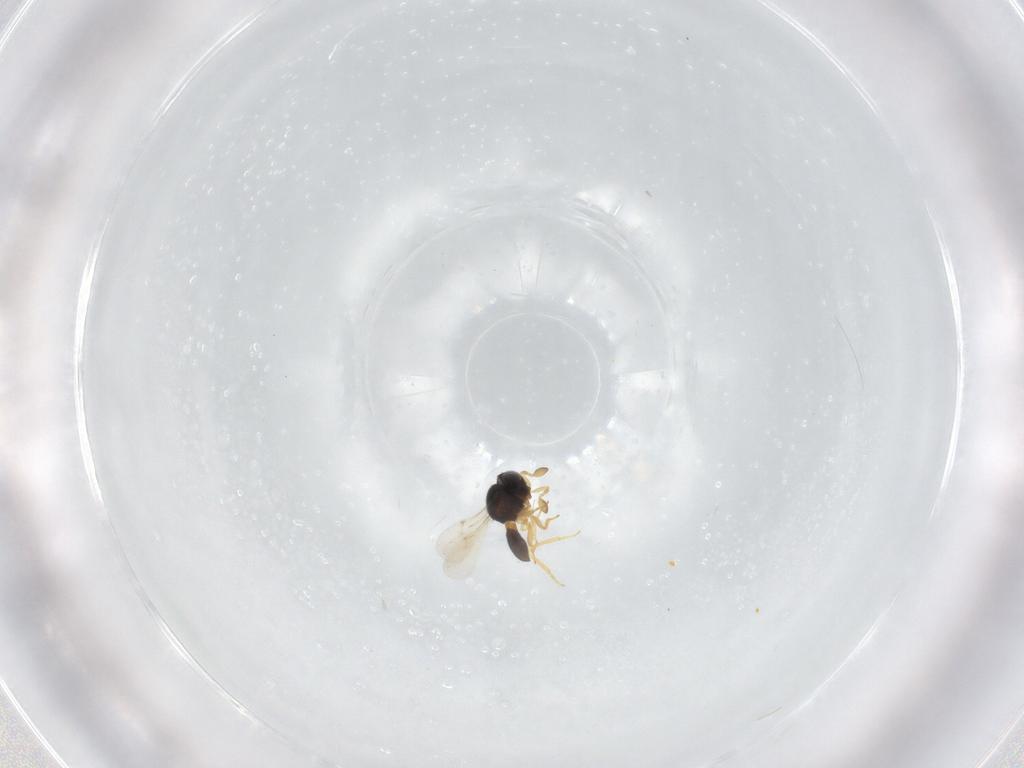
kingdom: Animalia
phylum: Arthropoda
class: Insecta
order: Hymenoptera
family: Scelionidae
